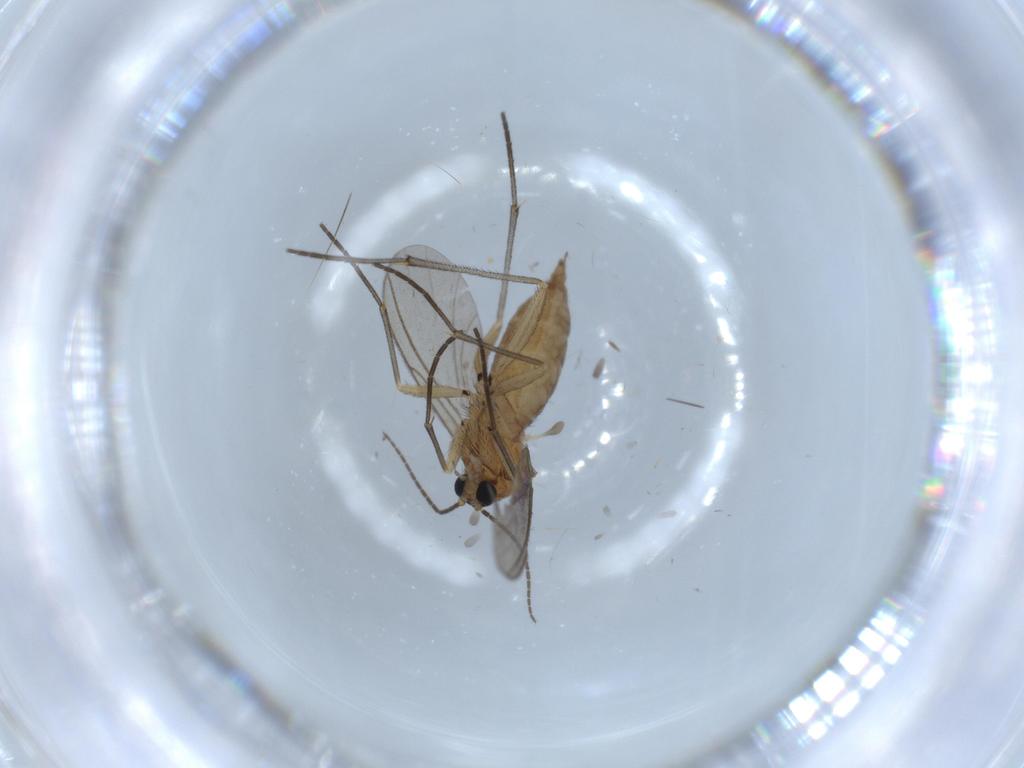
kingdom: Animalia
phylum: Arthropoda
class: Insecta
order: Diptera
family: Sciaridae
